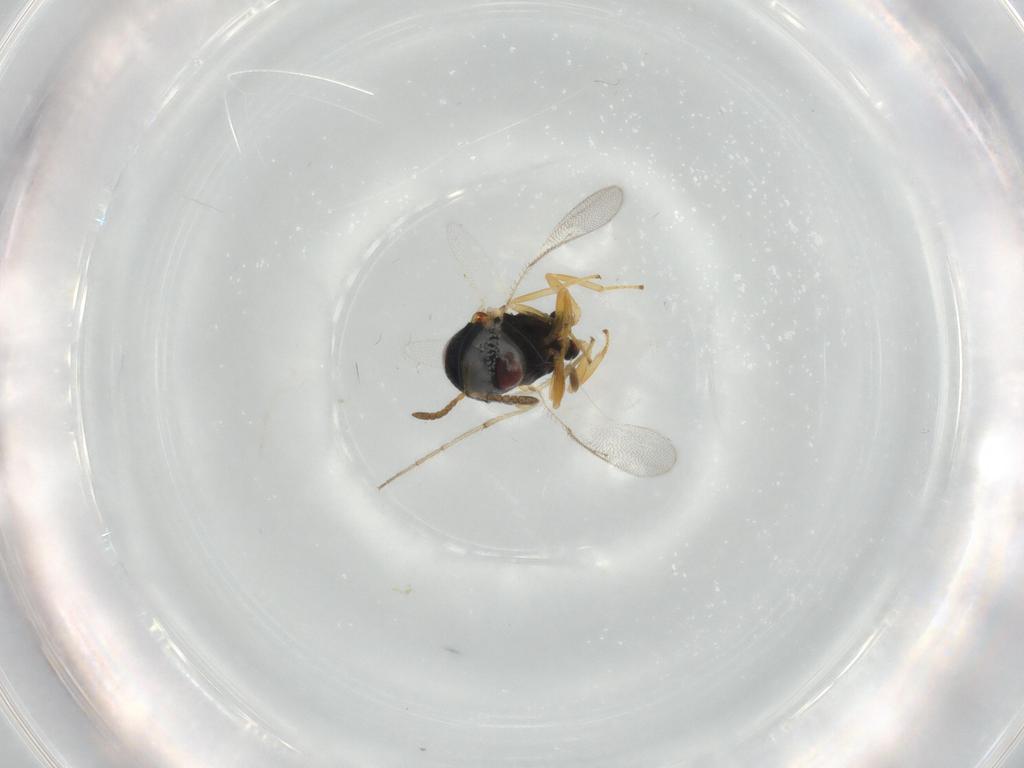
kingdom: Animalia
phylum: Arthropoda
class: Insecta
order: Hymenoptera
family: Pteromalidae
